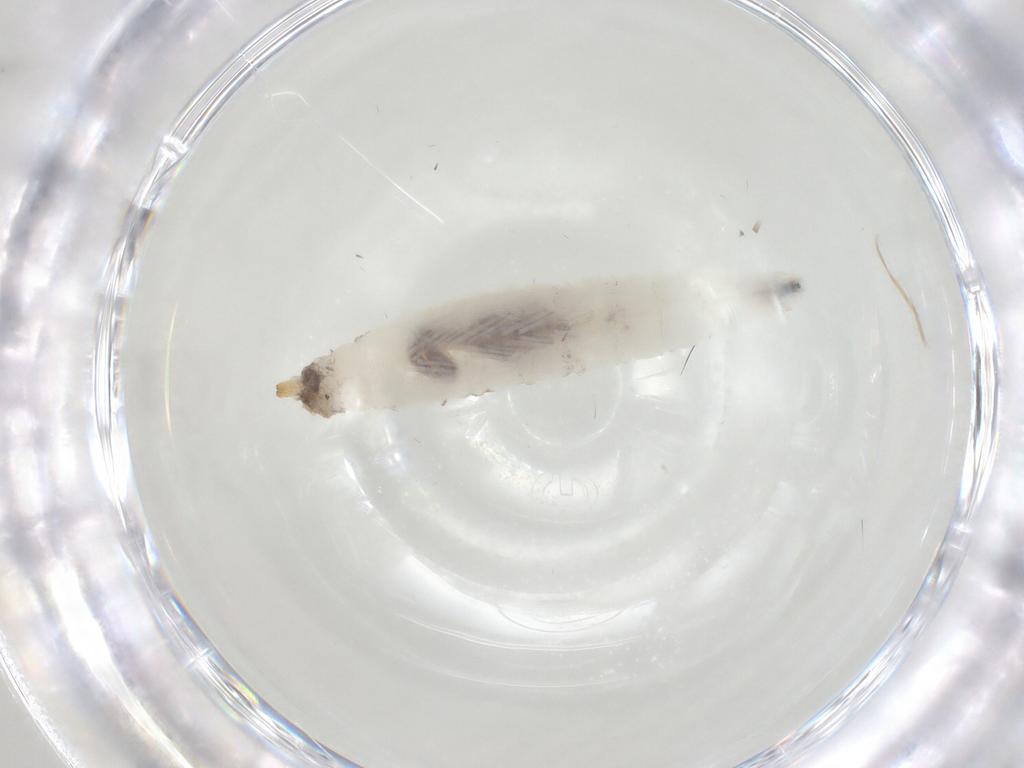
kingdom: Animalia
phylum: Arthropoda
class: Insecta
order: Diptera
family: Drosophilidae
